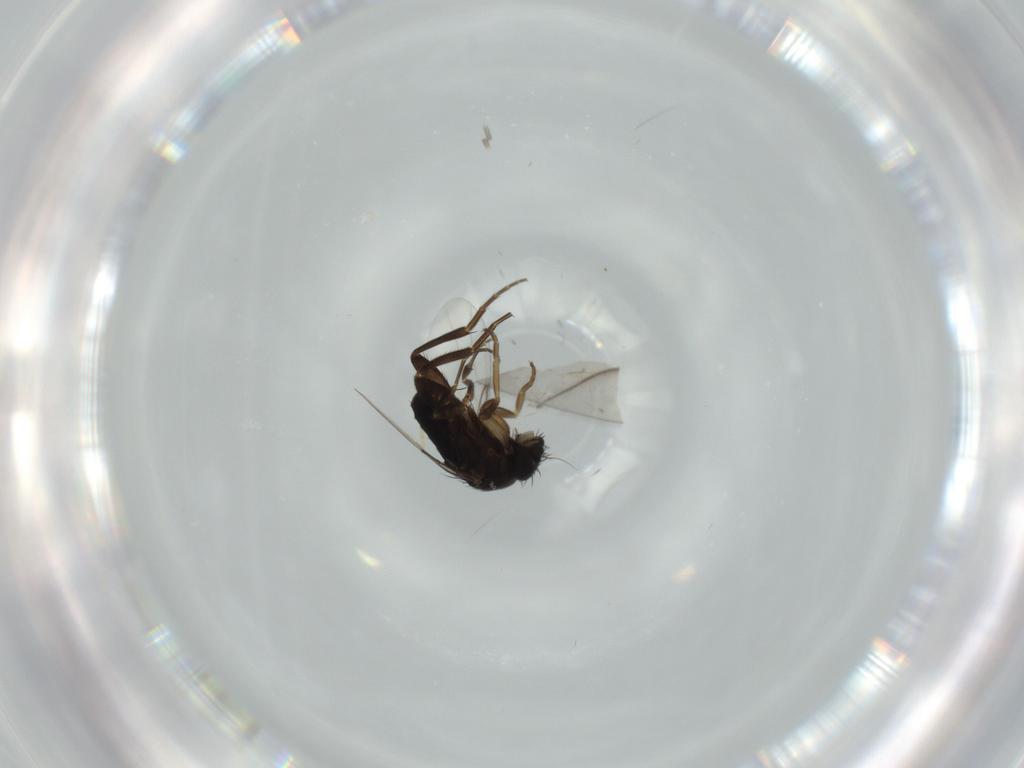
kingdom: Animalia
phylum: Arthropoda
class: Insecta
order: Diptera
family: Phoridae
